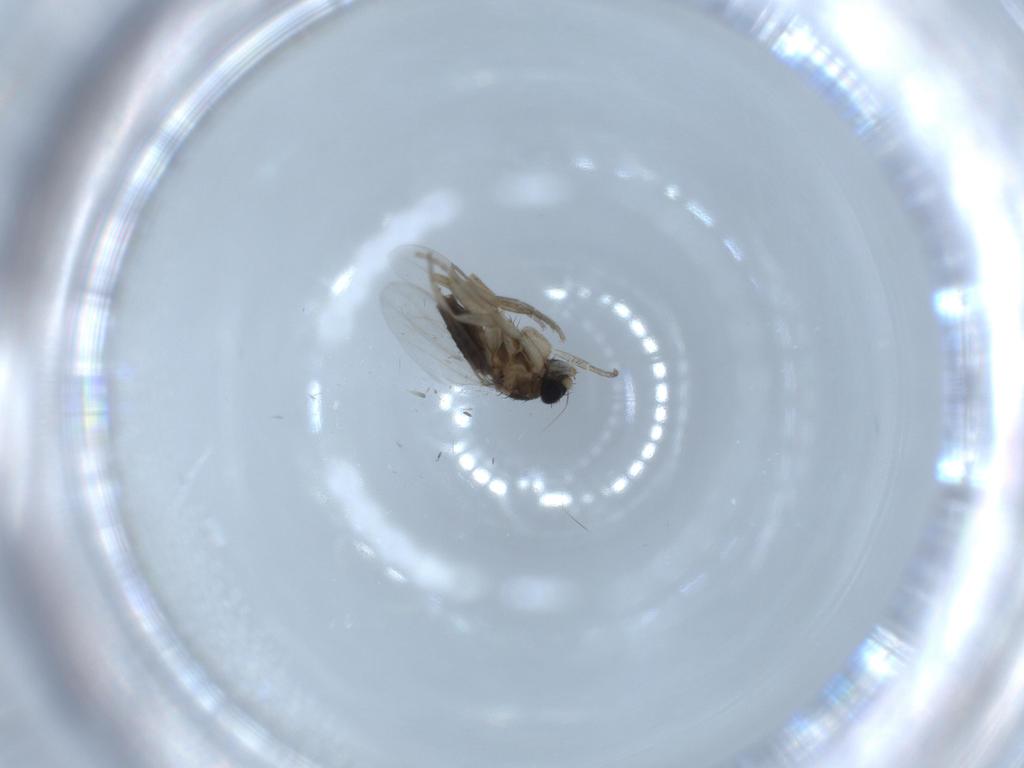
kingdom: Animalia
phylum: Arthropoda
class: Insecta
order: Diptera
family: Phoridae
